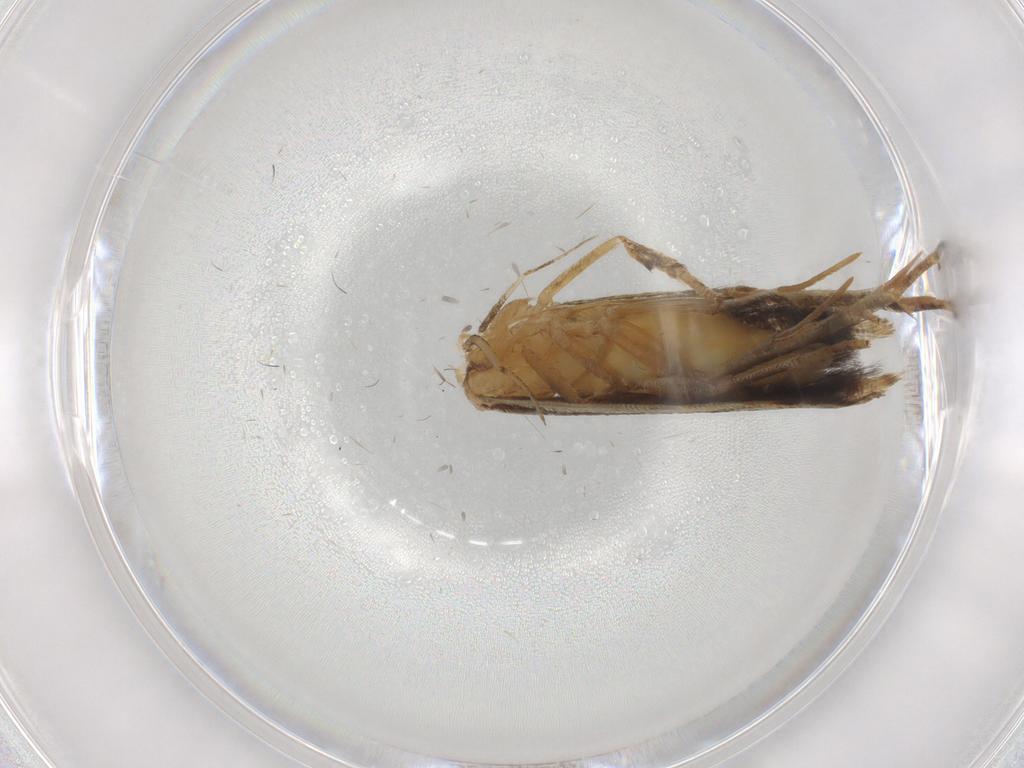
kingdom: Animalia
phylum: Arthropoda
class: Insecta
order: Lepidoptera
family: Pterolonchidae
